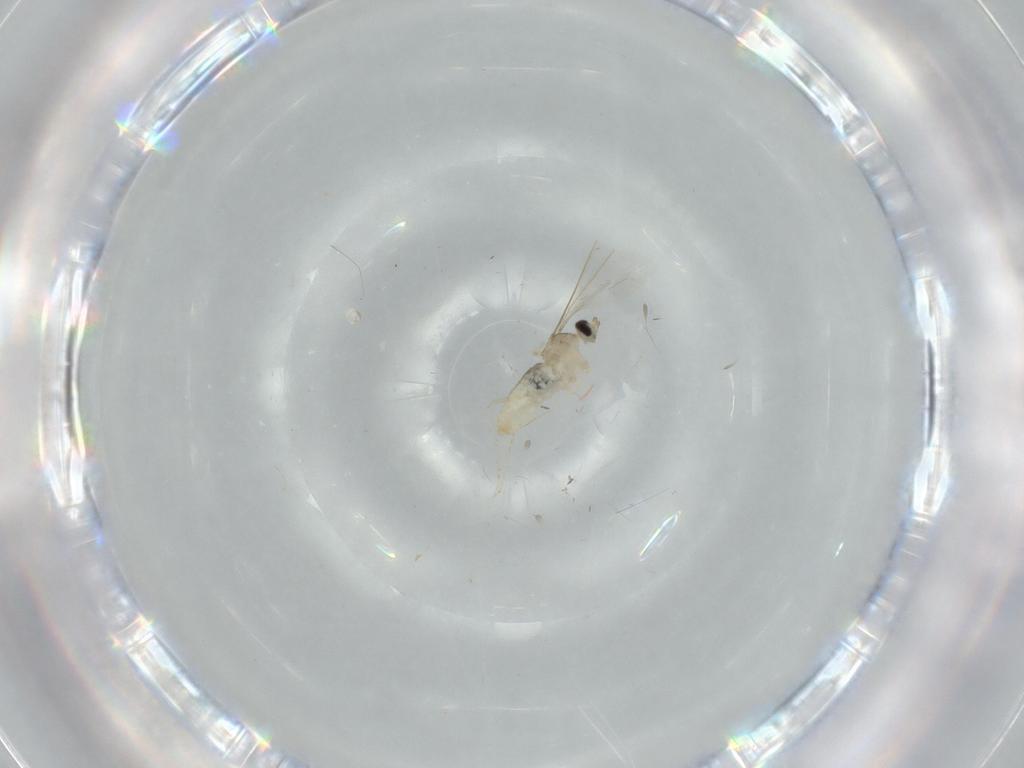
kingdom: Animalia
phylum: Arthropoda
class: Insecta
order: Diptera
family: Cecidomyiidae
